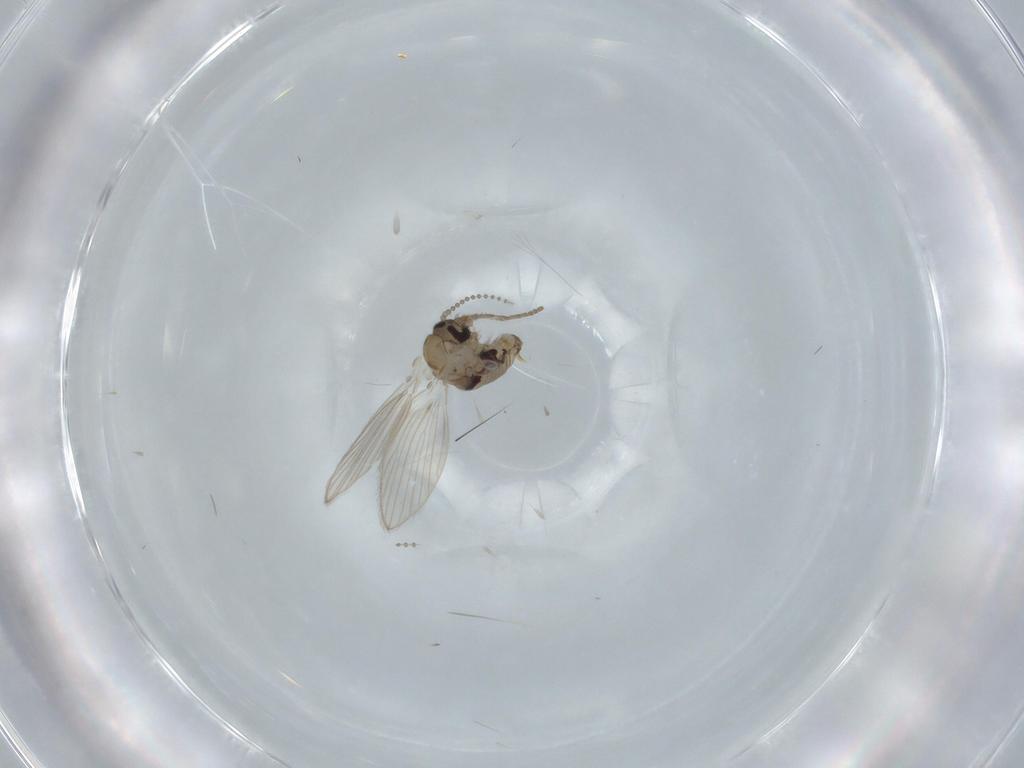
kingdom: Animalia
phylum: Arthropoda
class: Insecta
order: Diptera
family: Psychodidae
